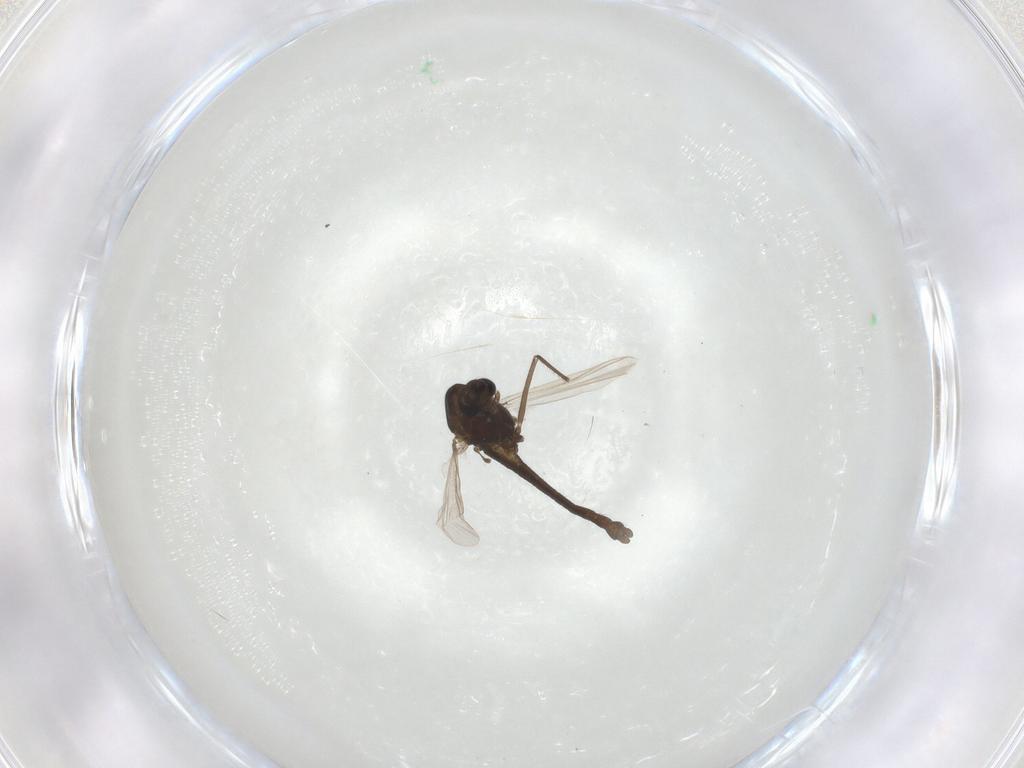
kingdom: Animalia
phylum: Arthropoda
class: Insecta
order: Diptera
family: Chironomidae
